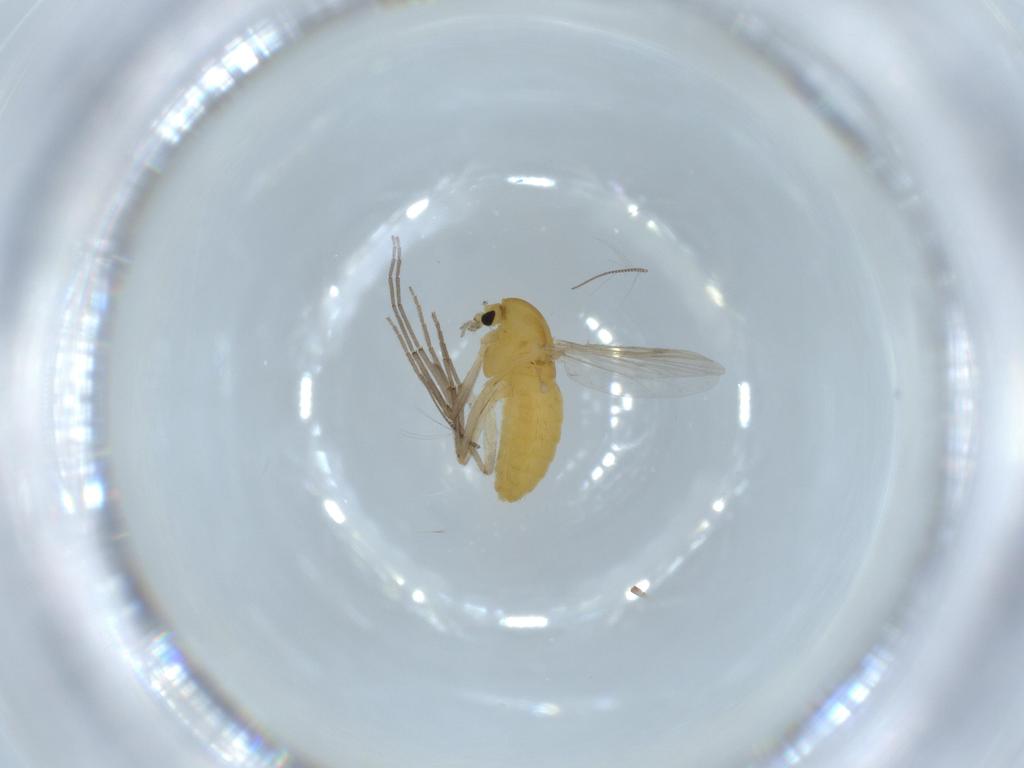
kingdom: Animalia
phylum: Arthropoda
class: Insecta
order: Diptera
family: Chironomidae
